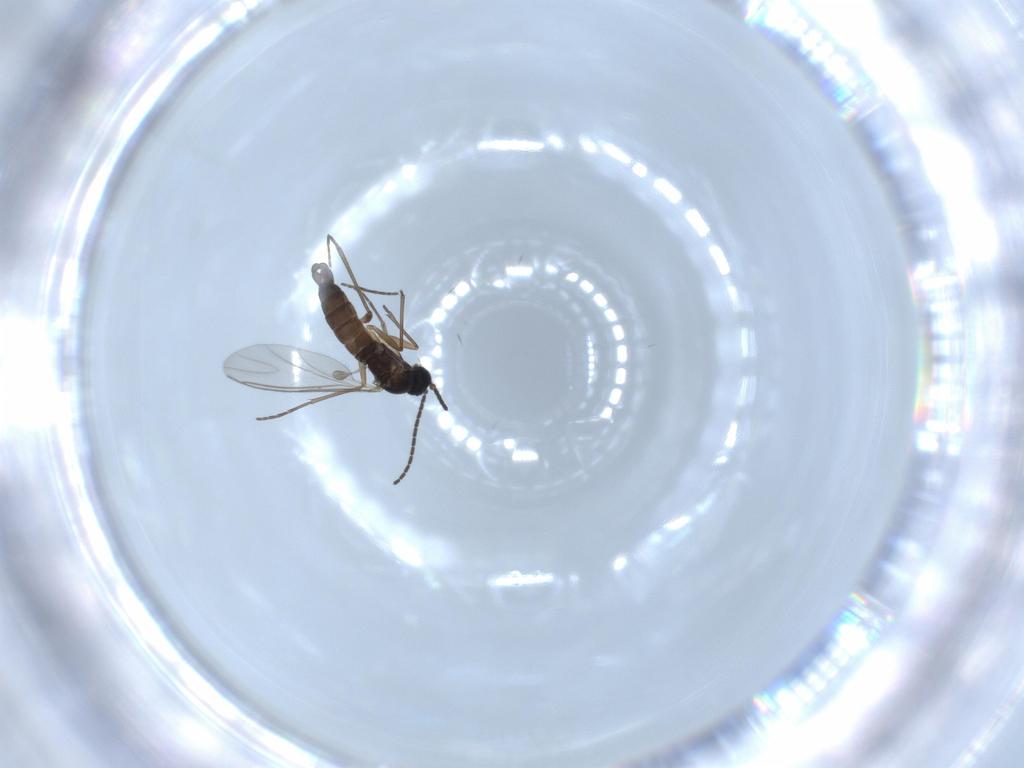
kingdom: Animalia
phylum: Arthropoda
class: Insecta
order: Diptera
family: Sciaridae
